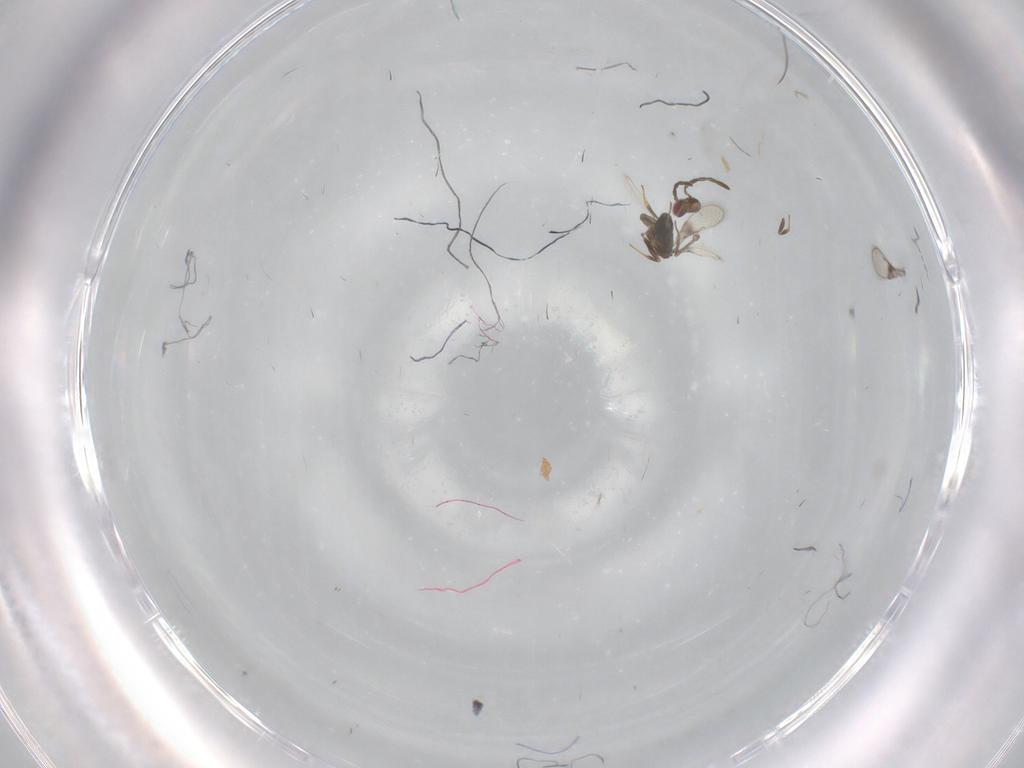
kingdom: Animalia
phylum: Arthropoda
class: Insecta
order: Hymenoptera
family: Azotidae
